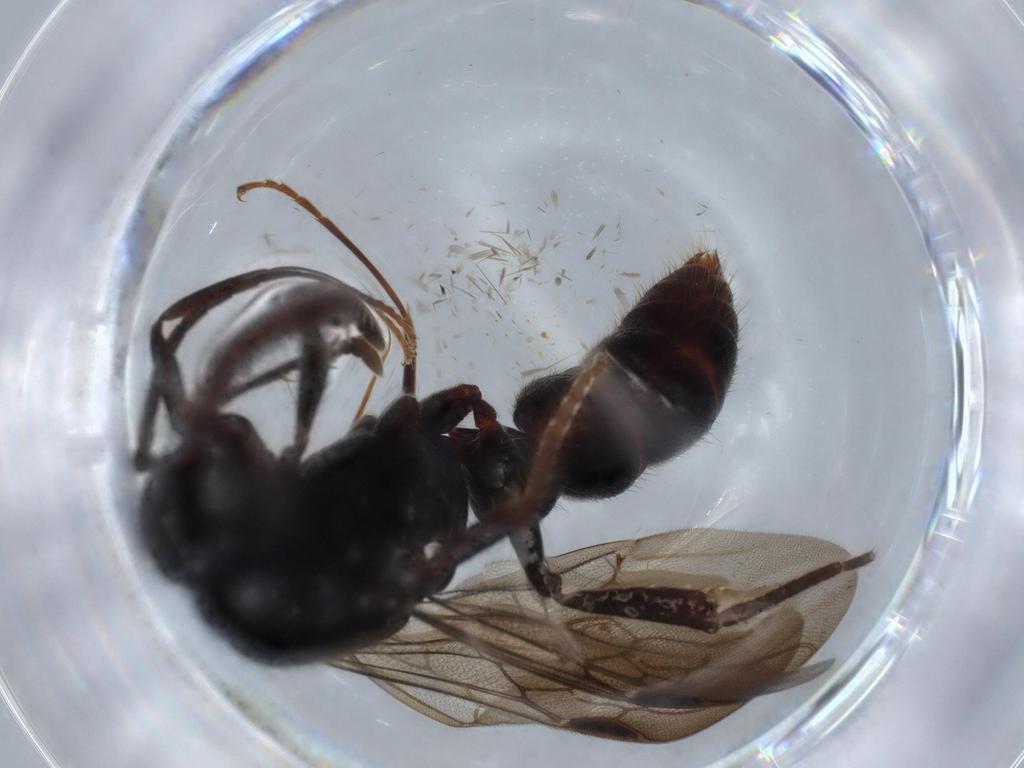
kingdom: Animalia
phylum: Arthropoda
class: Insecta
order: Hymenoptera
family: Formicidae
